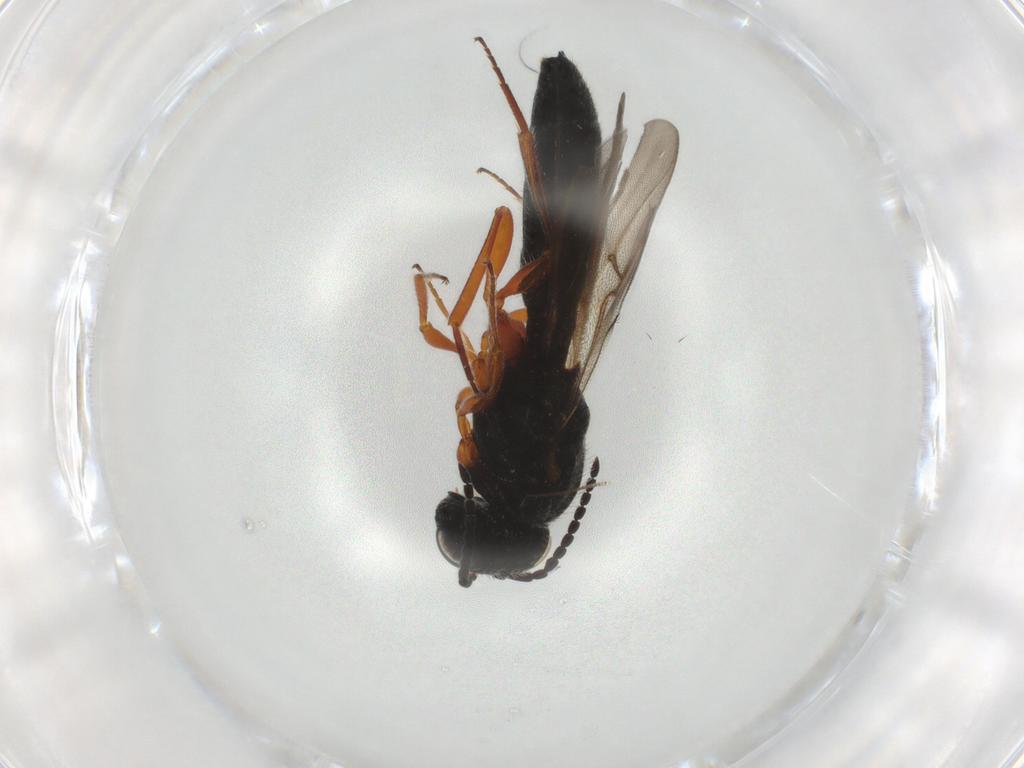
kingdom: Animalia
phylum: Arthropoda
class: Insecta
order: Hymenoptera
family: Scelionidae
